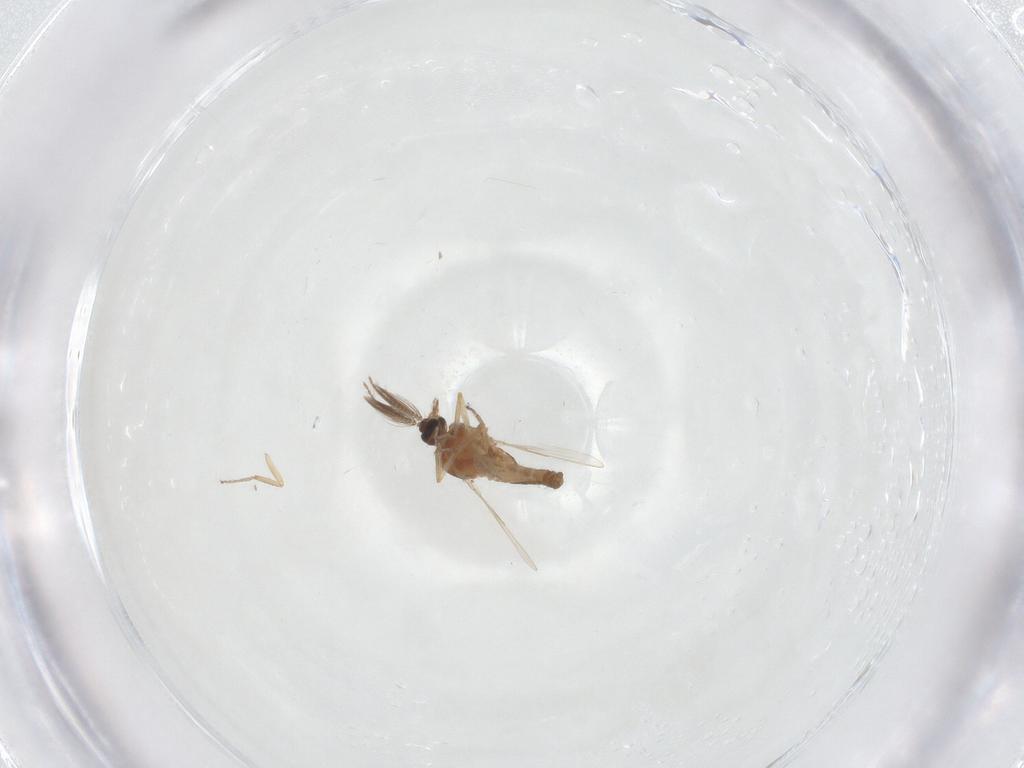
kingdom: Animalia
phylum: Arthropoda
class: Insecta
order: Diptera
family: Ceratopogonidae
